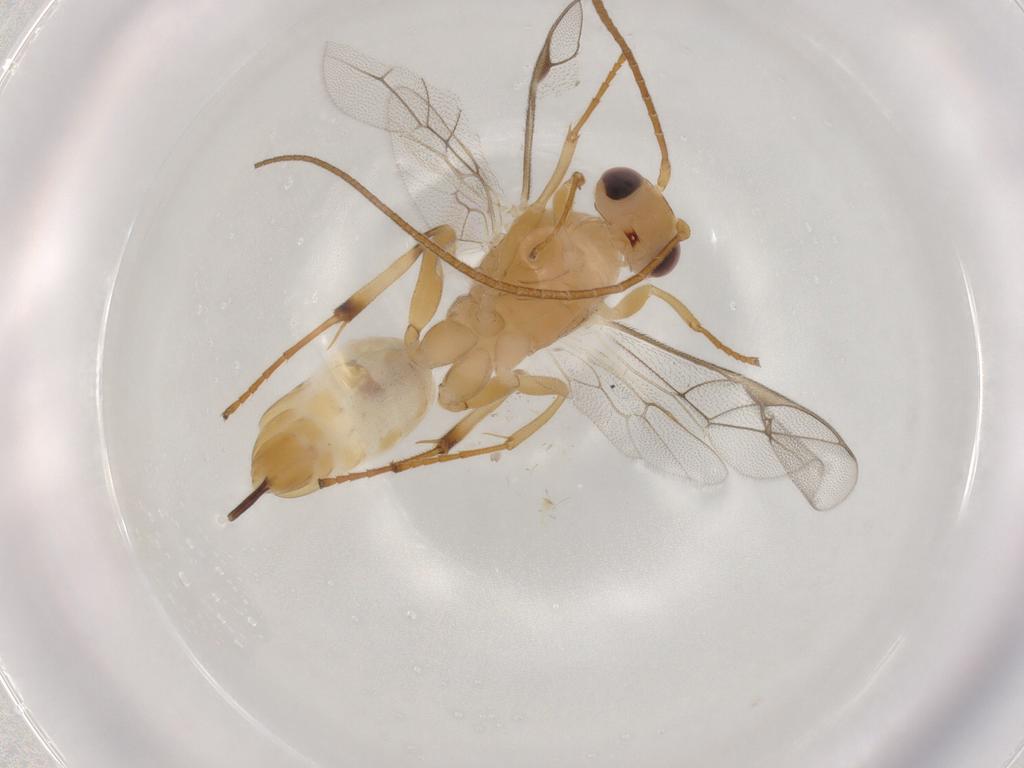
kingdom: Animalia
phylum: Arthropoda
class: Insecta
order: Hymenoptera
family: Ichneumonidae
